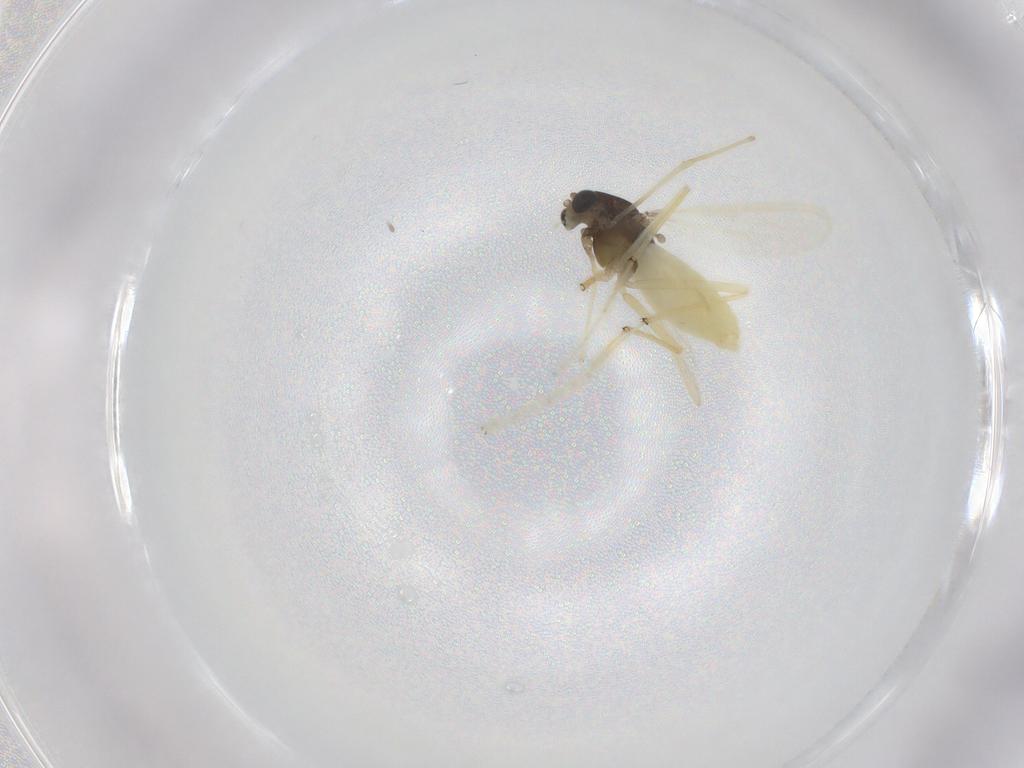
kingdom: Animalia
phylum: Arthropoda
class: Insecta
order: Diptera
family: Chironomidae
